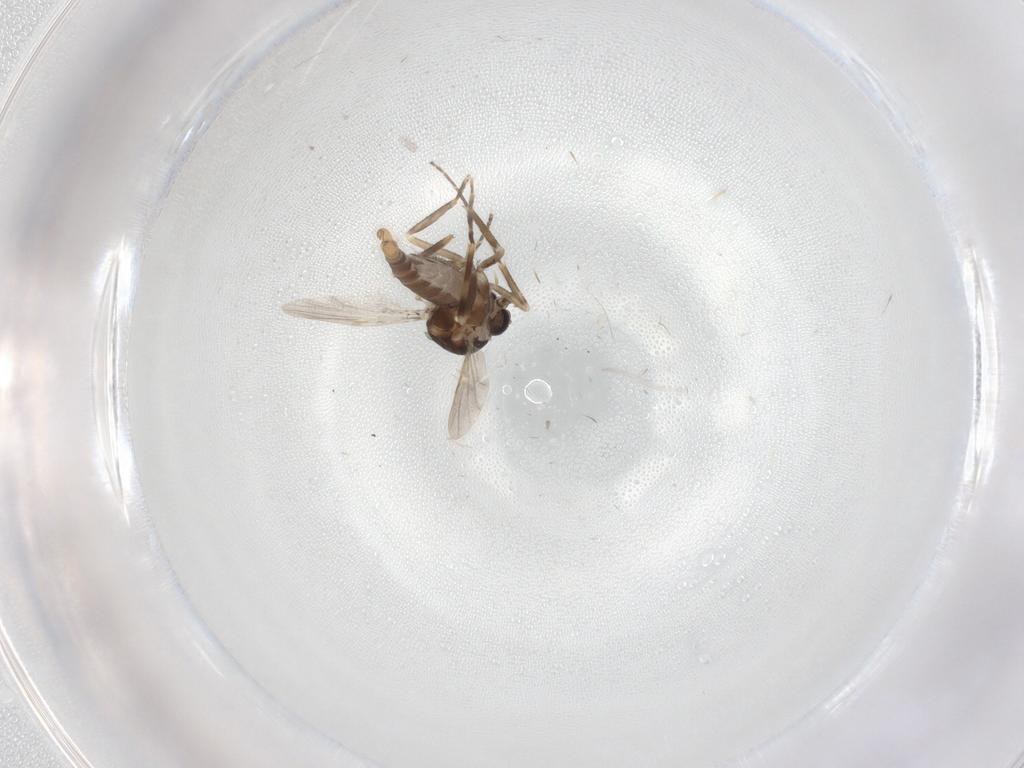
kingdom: Animalia
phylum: Arthropoda
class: Insecta
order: Diptera
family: Ceratopogonidae
